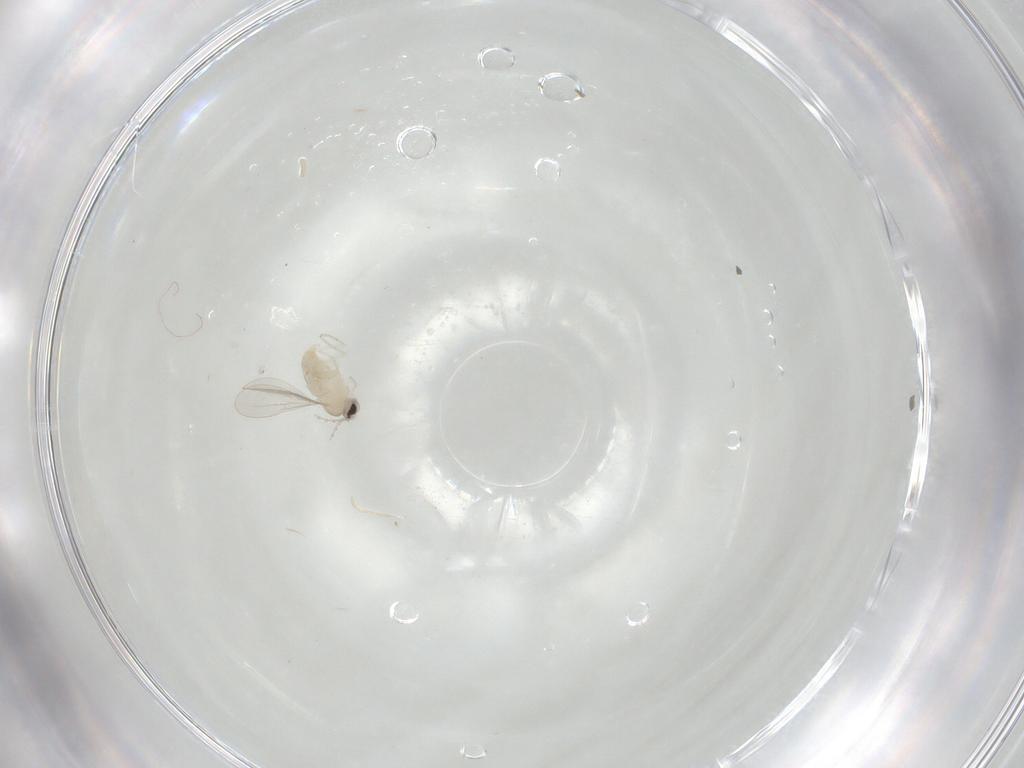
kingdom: Animalia
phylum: Arthropoda
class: Insecta
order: Diptera
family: Cecidomyiidae
